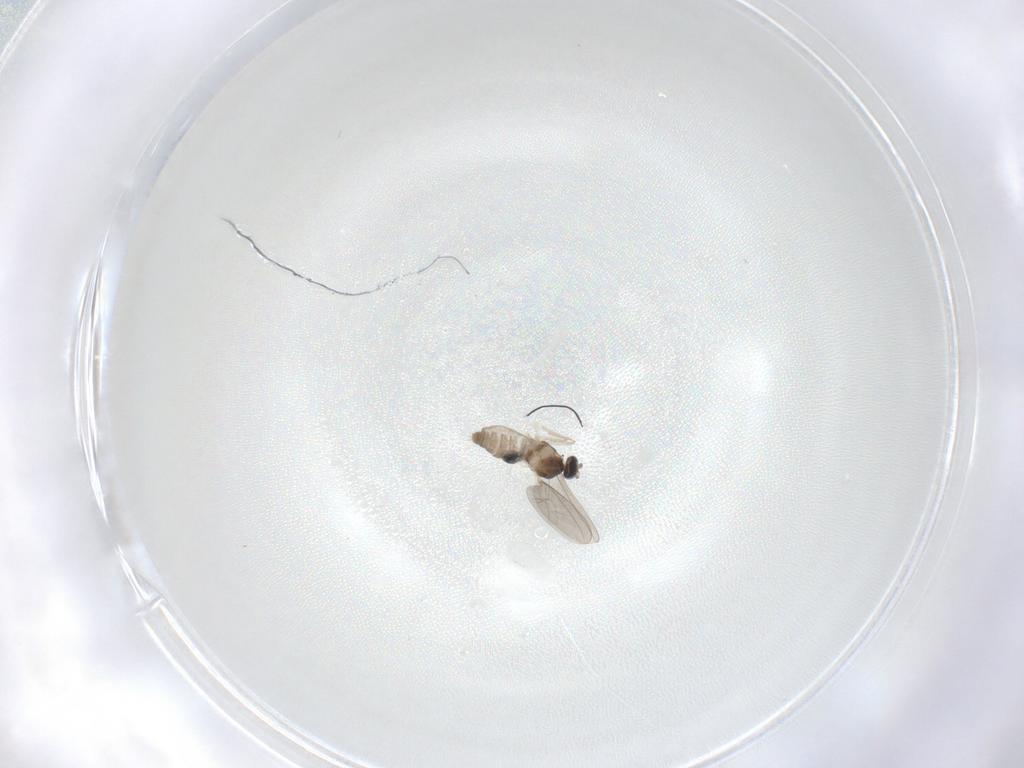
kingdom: Animalia
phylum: Arthropoda
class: Insecta
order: Diptera
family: Cecidomyiidae
